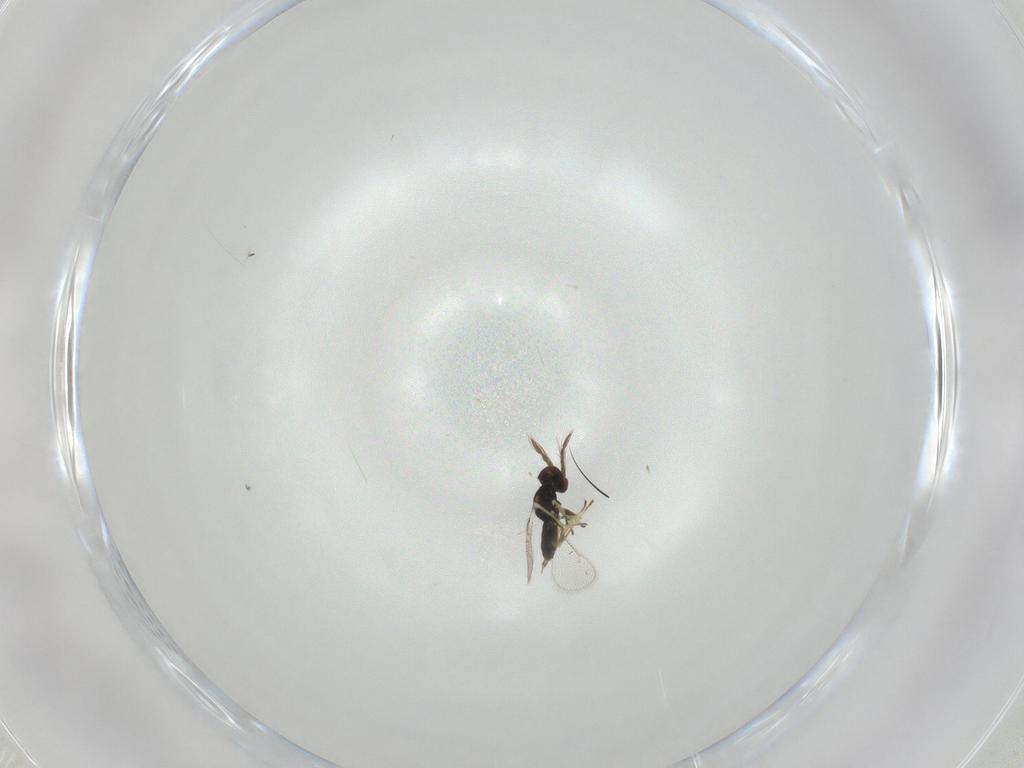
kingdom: Animalia
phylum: Arthropoda
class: Insecta
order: Hymenoptera
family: Eulophidae
